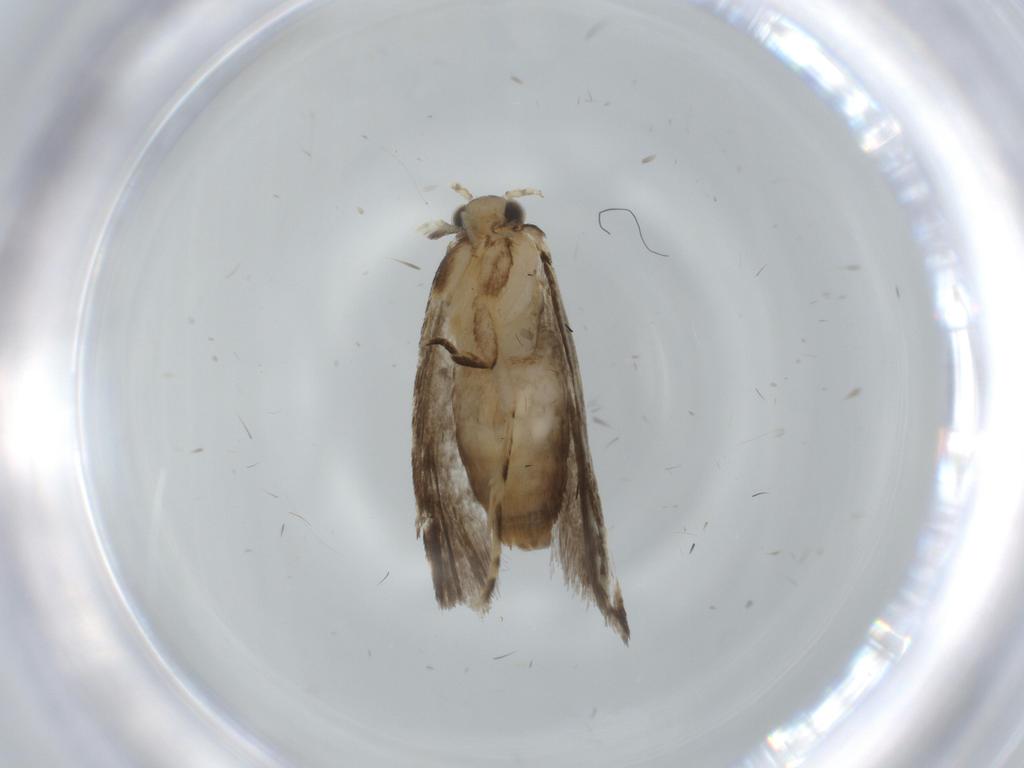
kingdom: Animalia
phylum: Arthropoda
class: Insecta
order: Lepidoptera
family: Tineidae
